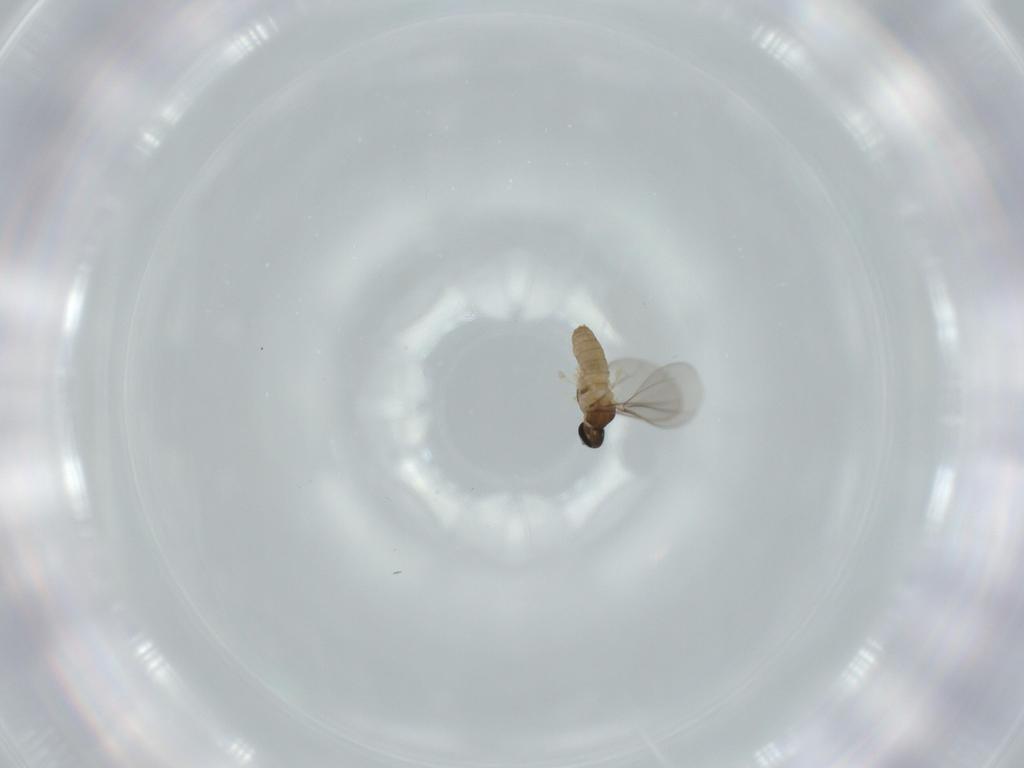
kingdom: Animalia
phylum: Arthropoda
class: Insecta
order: Diptera
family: Cecidomyiidae
